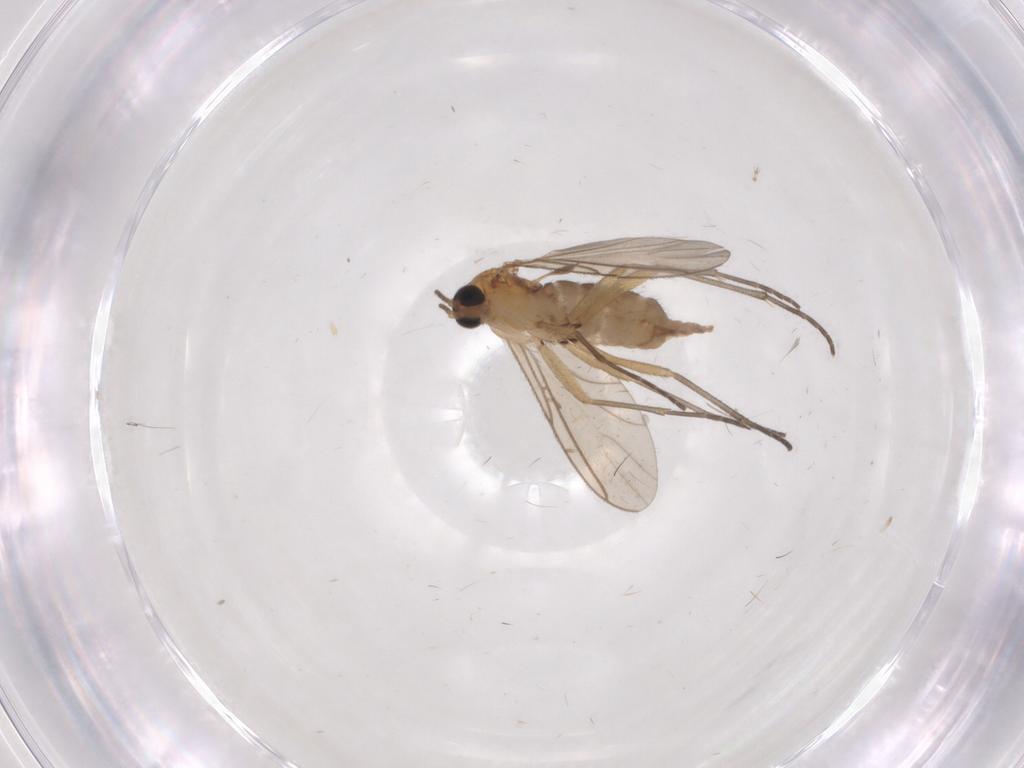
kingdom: Animalia
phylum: Arthropoda
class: Insecta
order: Diptera
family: Sciaridae
